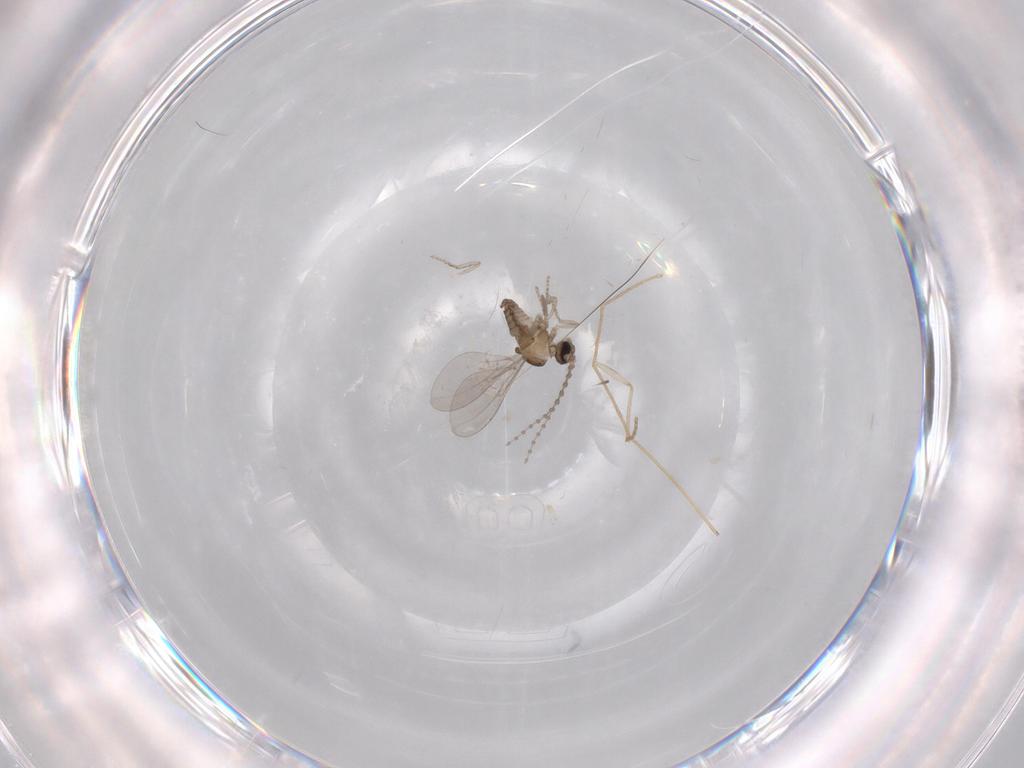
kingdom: Animalia
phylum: Arthropoda
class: Insecta
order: Diptera
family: Cecidomyiidae
